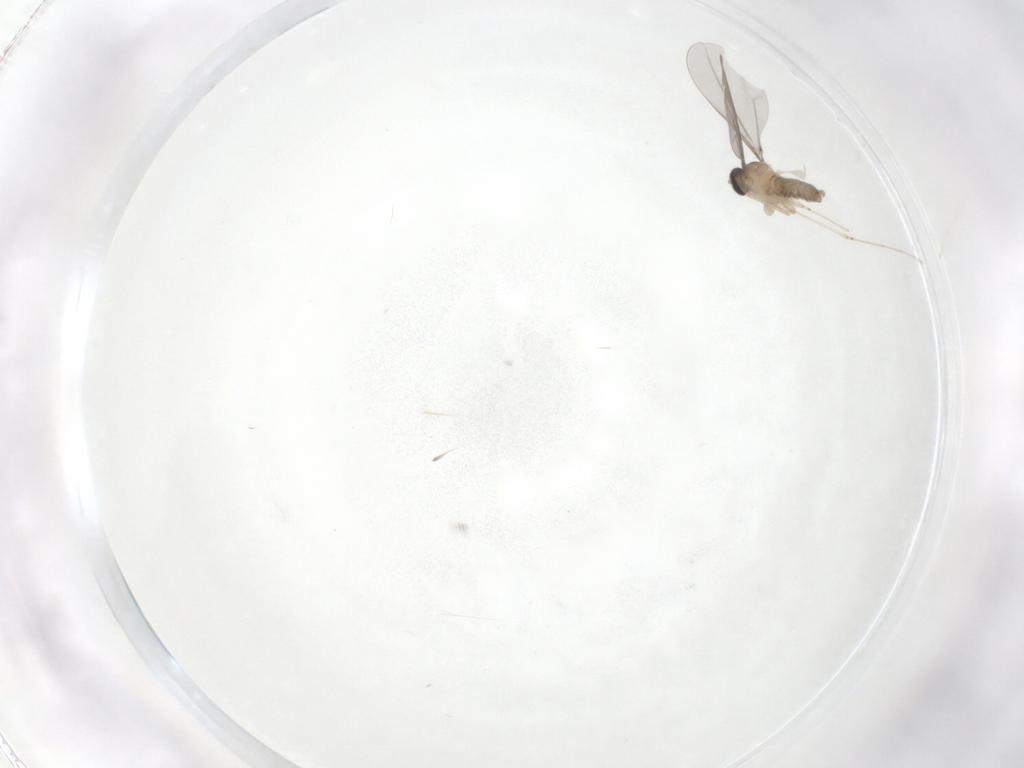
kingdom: Animalia
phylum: Arthropoda
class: Insecta
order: Diptera
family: Cecidomyiidae
